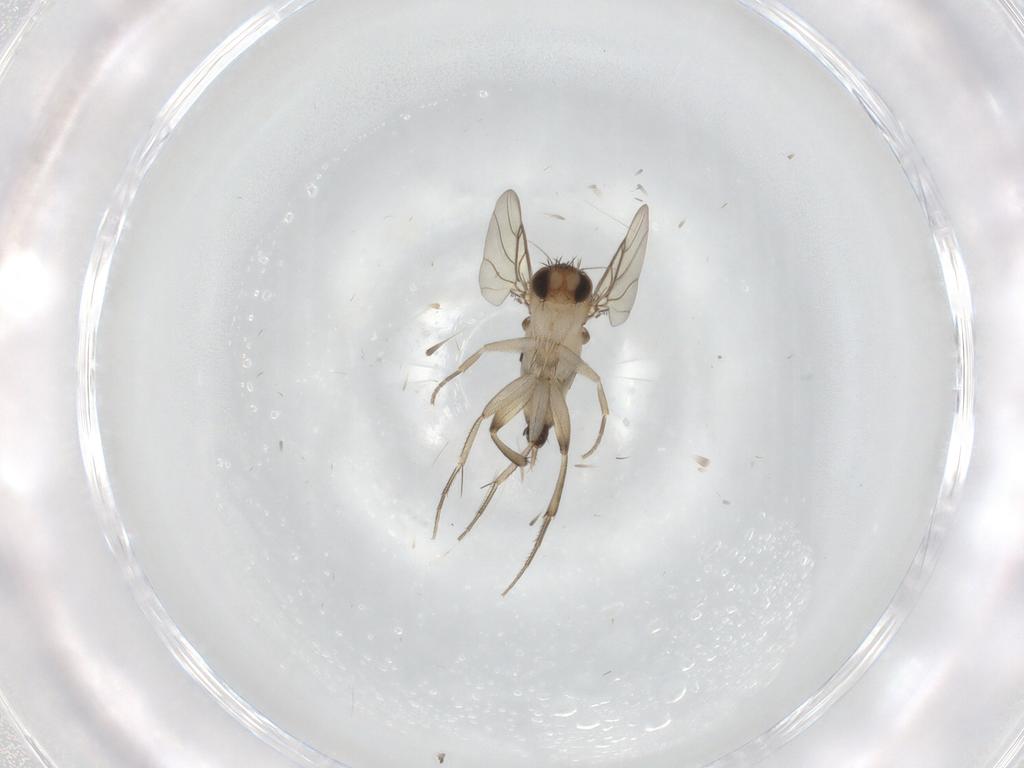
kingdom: Animalia
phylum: Arthropoda
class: Insecta
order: Diptera
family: Phoridae
